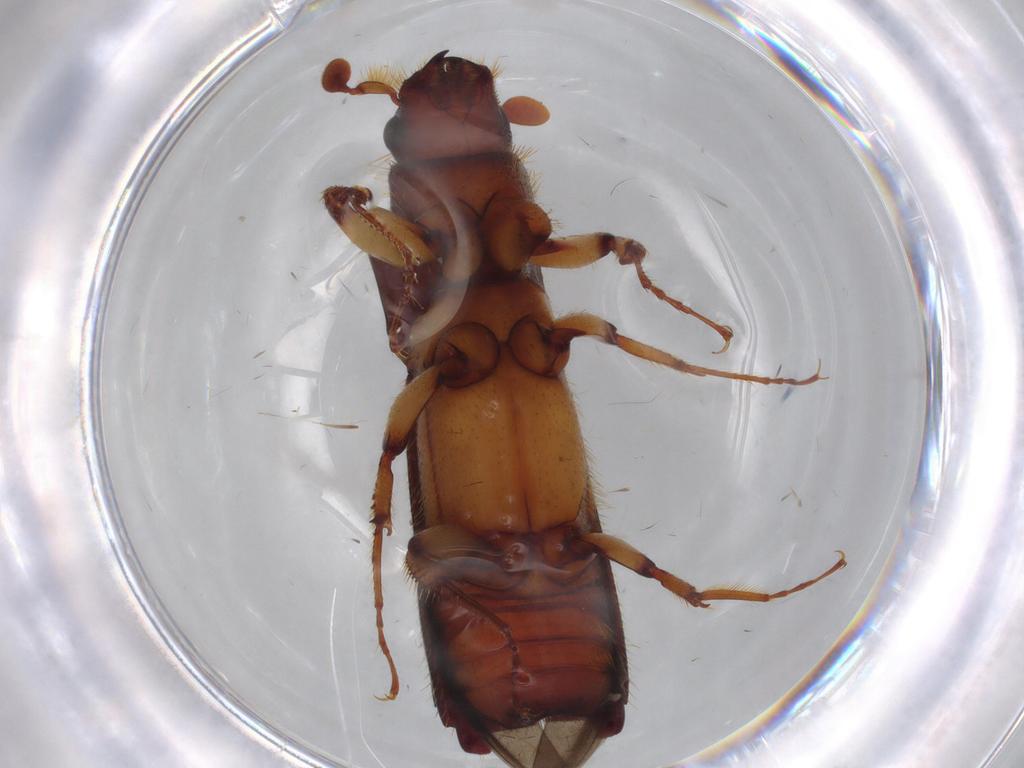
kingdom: Animalia
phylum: Arthropoda
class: Insecta
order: Coleoptera
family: Curculionidae
